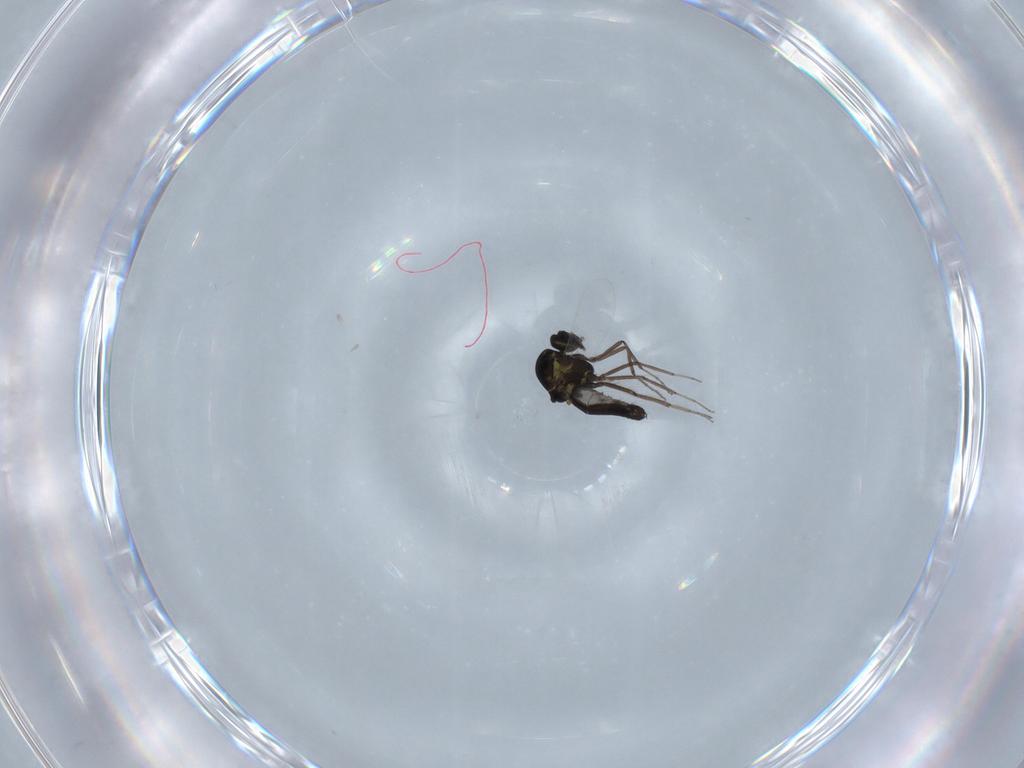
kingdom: Animalia
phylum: Arthropoda
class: Insecta
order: Diptera
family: Ceratopogonidae
